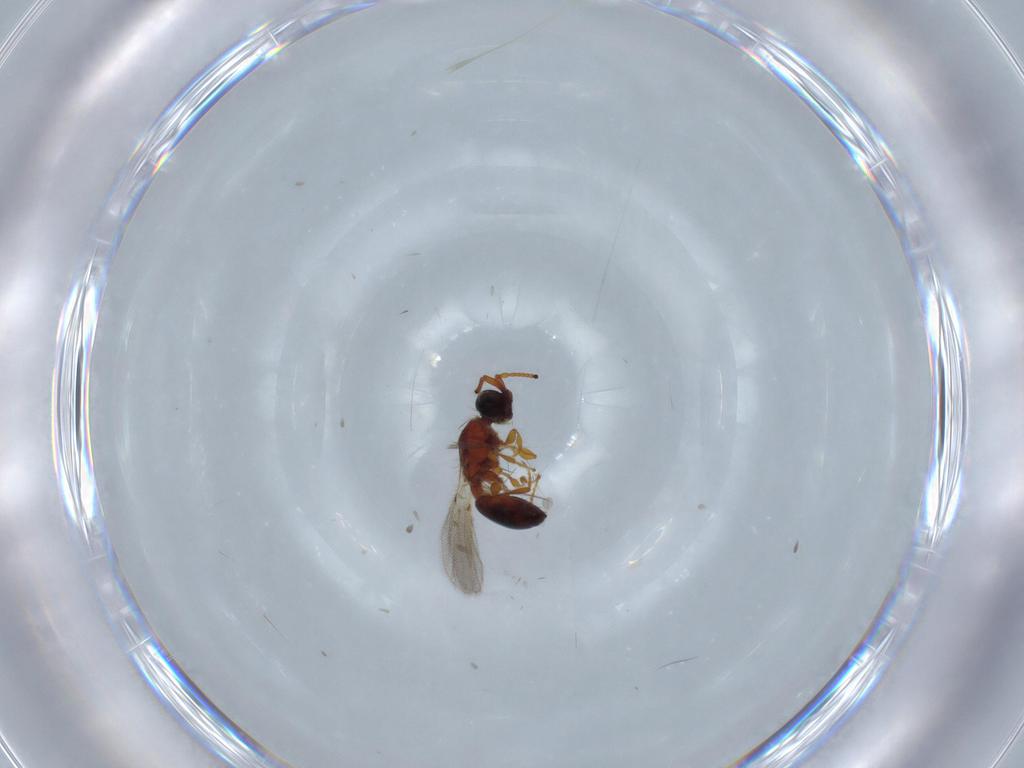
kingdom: Animalia
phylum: Arthropoda
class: Insecta
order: Hymenoptera
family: Diapriidae
